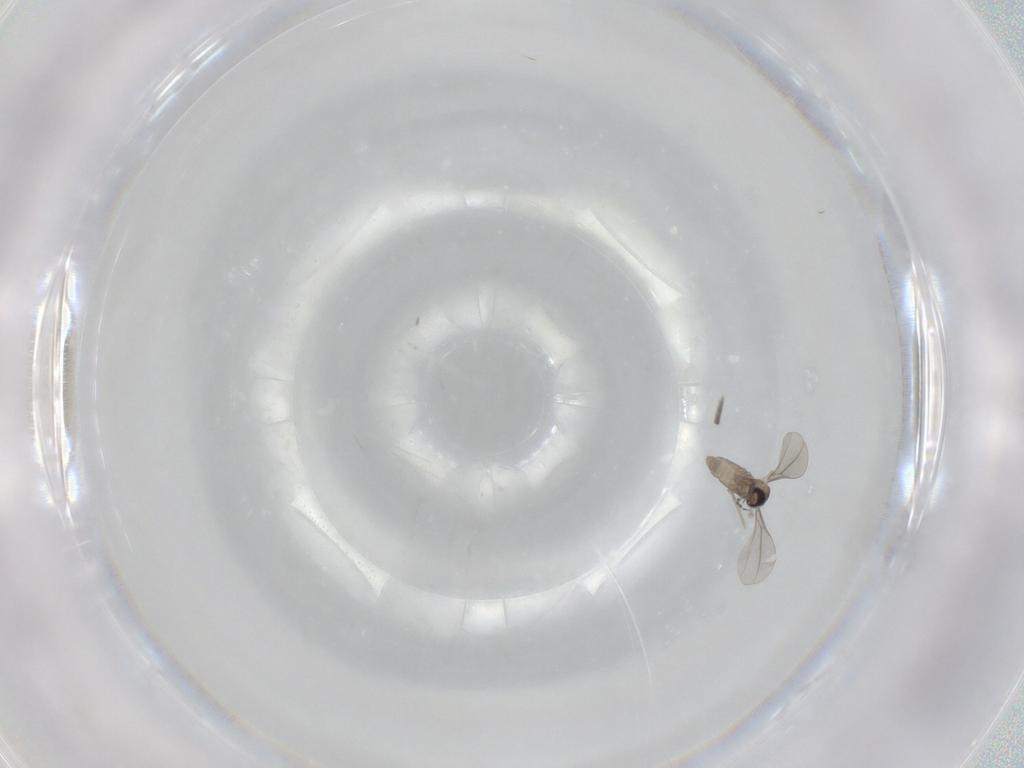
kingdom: Animalia
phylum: Arthropoda
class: Insecta
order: Diptera
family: Cecidomyiidae
